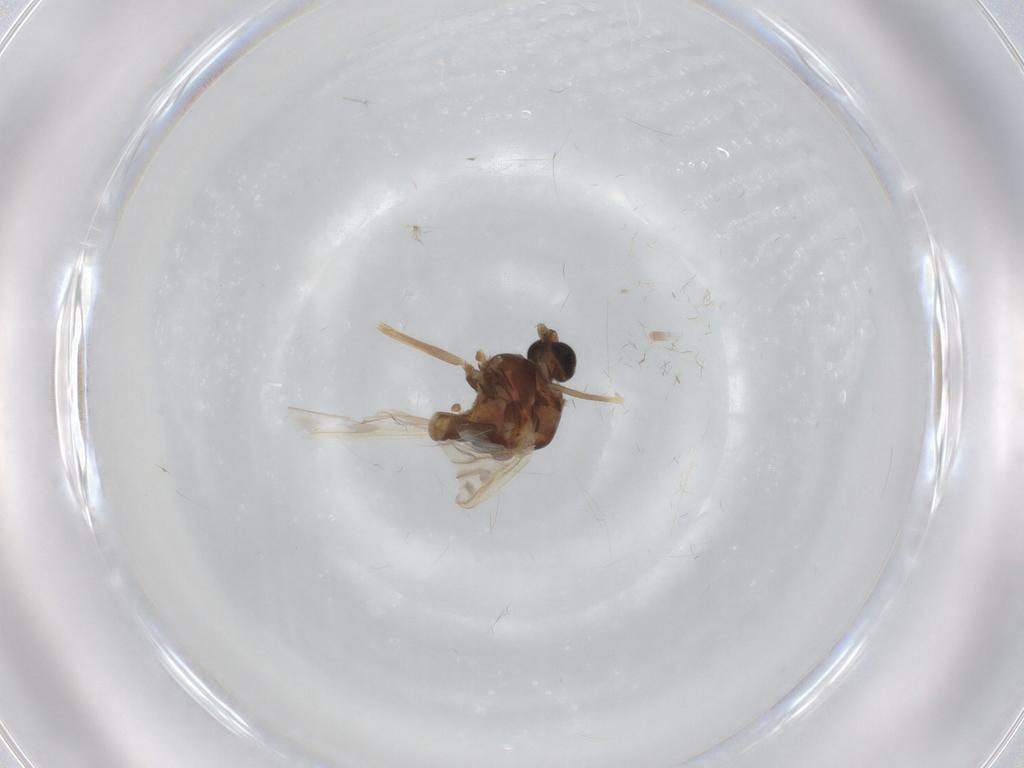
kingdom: Animalia
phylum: Arthropoda
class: Insecta
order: Diptera
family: Chironomidae
